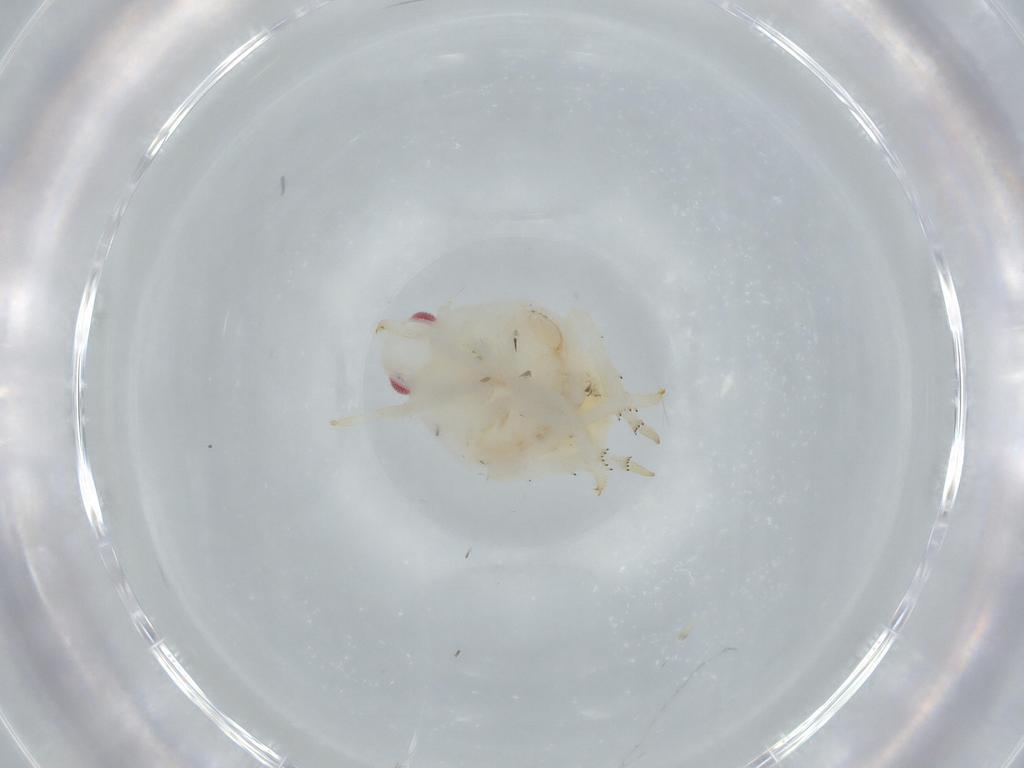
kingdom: Animalia
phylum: Arthropoda
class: Insecta
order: Hemiptera
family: Flatidae
